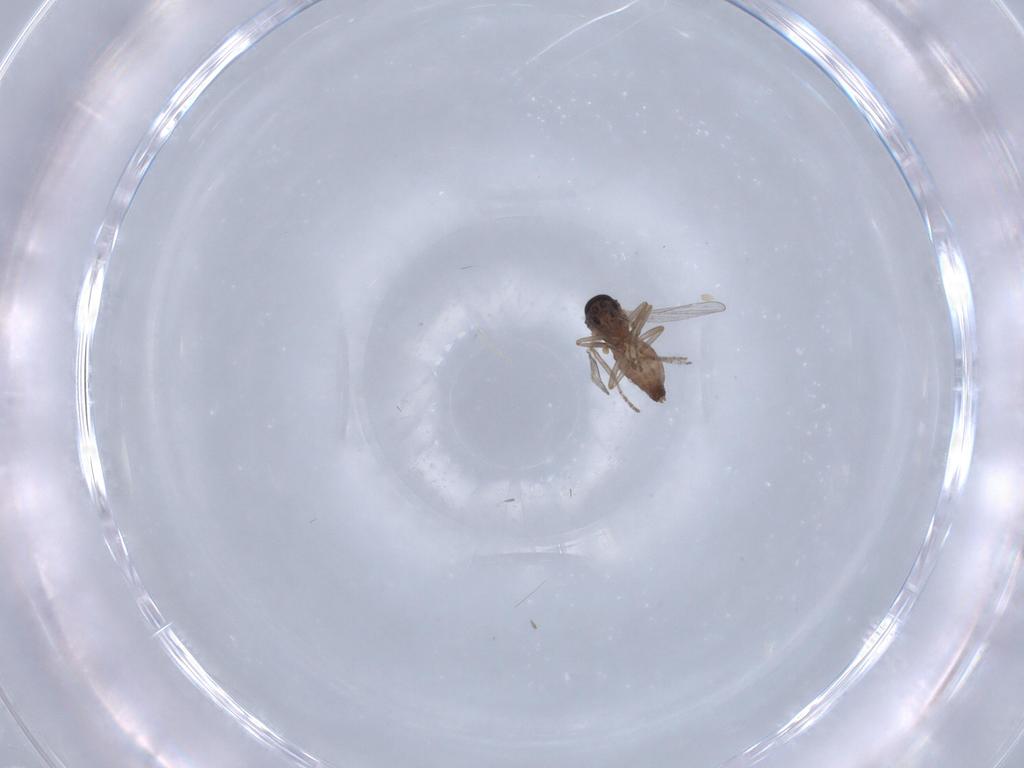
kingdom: Animalia
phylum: Arthropoda
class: Insecta
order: Diptera
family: Ceratopogonidae
